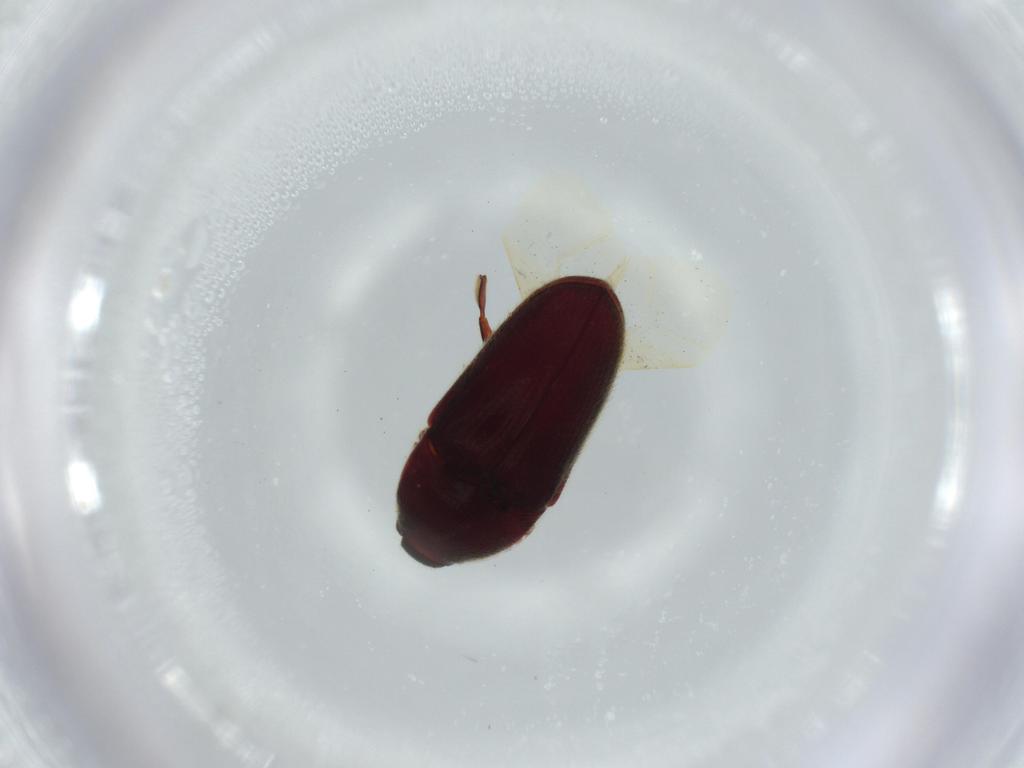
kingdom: Animalia
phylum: Arthropoda
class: Insecta
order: Coleoptera
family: Throscidae
